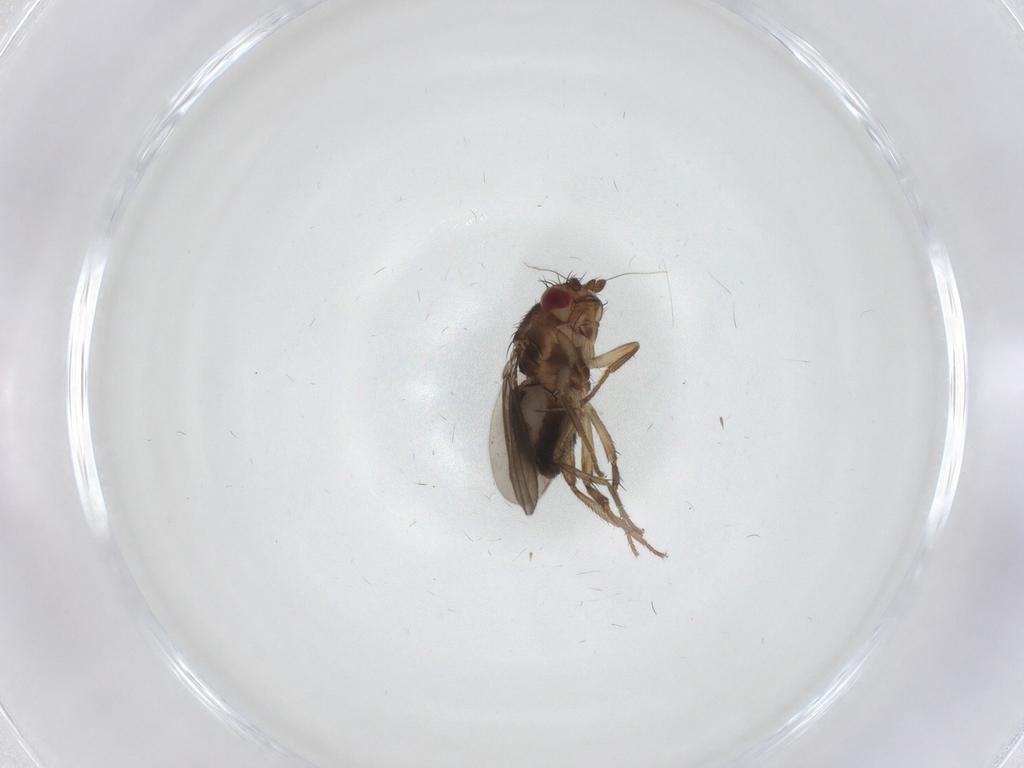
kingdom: Animalia
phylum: Arthropoda
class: Insecta
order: Diptera
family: Sphaeroceridae
